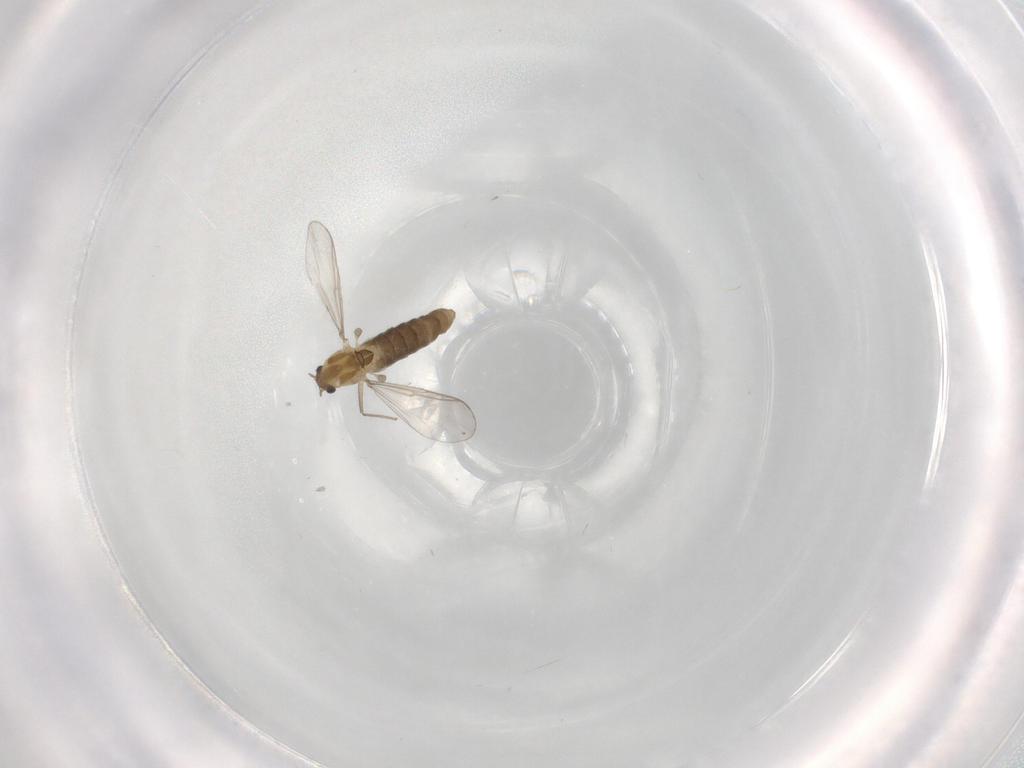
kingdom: Animalia
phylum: Arthropoda
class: Insecta
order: Diptera
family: Chironomidae
